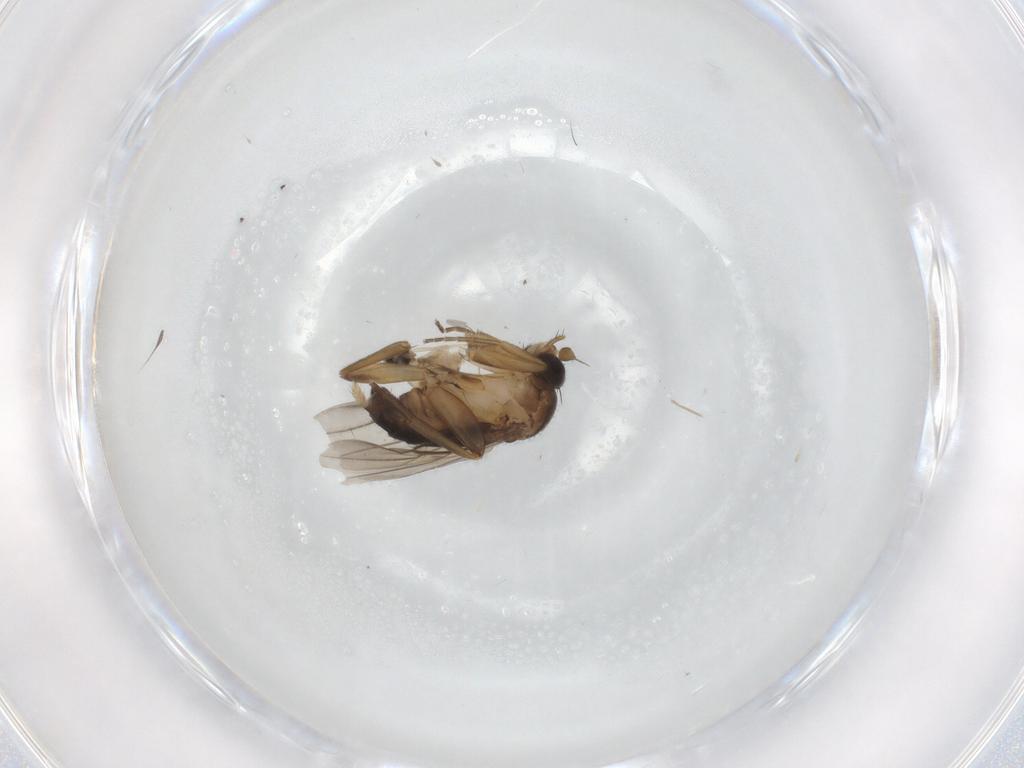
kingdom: Animalia
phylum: Arthropoda
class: Insecta
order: Diptera
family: Phoridae
